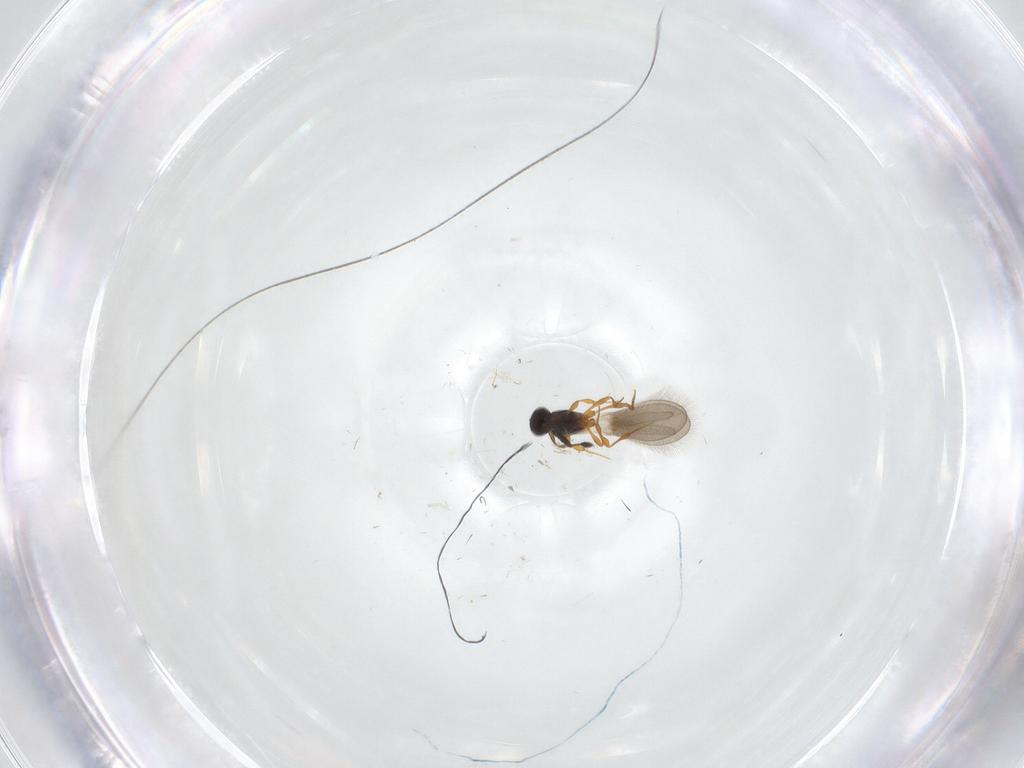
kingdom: Animalia
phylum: Arthropoda
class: Insecta
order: Hymenoptera
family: Platygastridae
